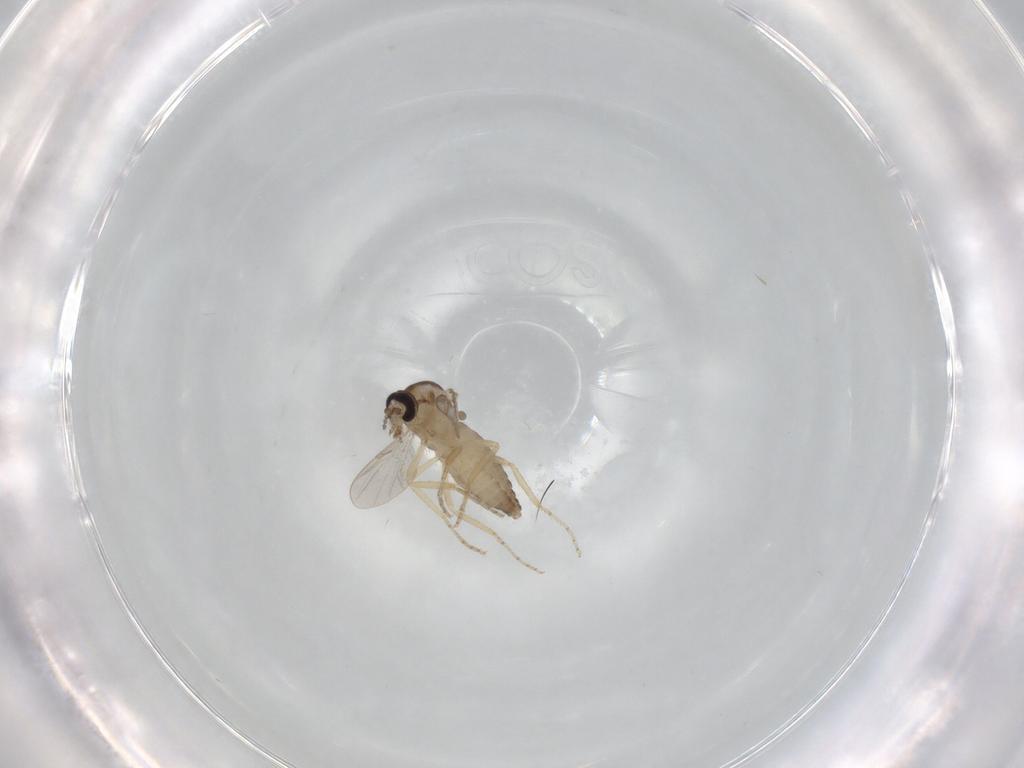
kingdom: Animalia
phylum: Arthropoda
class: Insecta
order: Diptera
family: Ceratopogonidae
